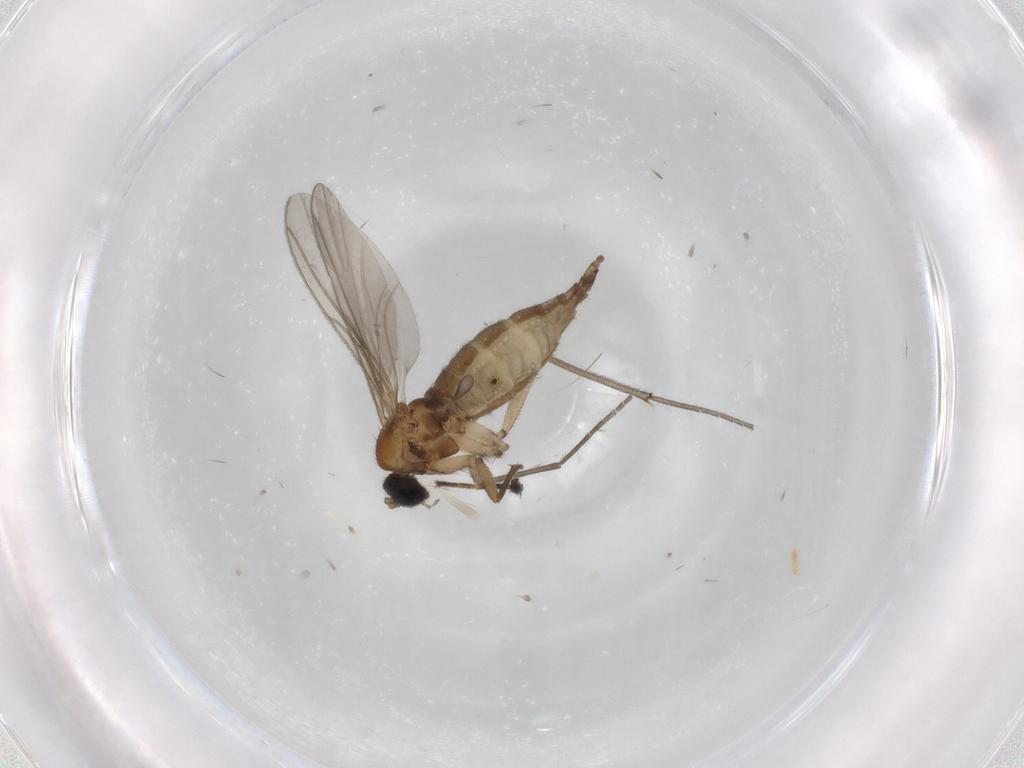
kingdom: Animalia
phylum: Arthropoda
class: Insecta
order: Diptera
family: Sciaridae
